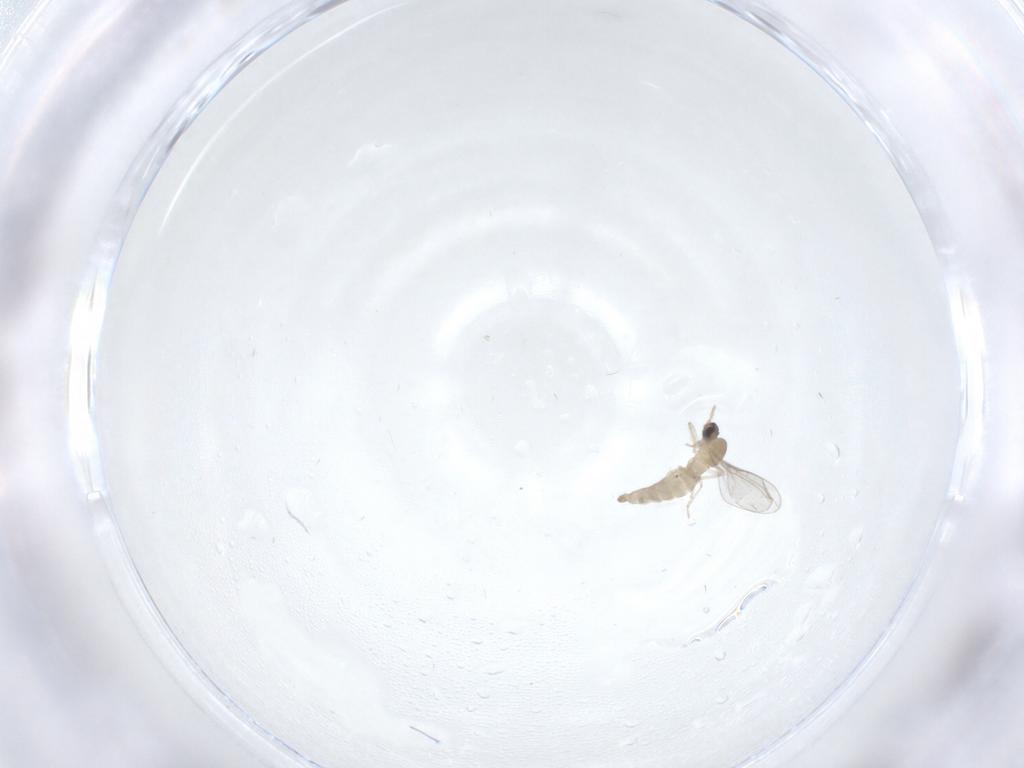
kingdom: Animalia
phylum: Arthropoda
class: Insecta
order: Diptera
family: Cecidomyiidae
